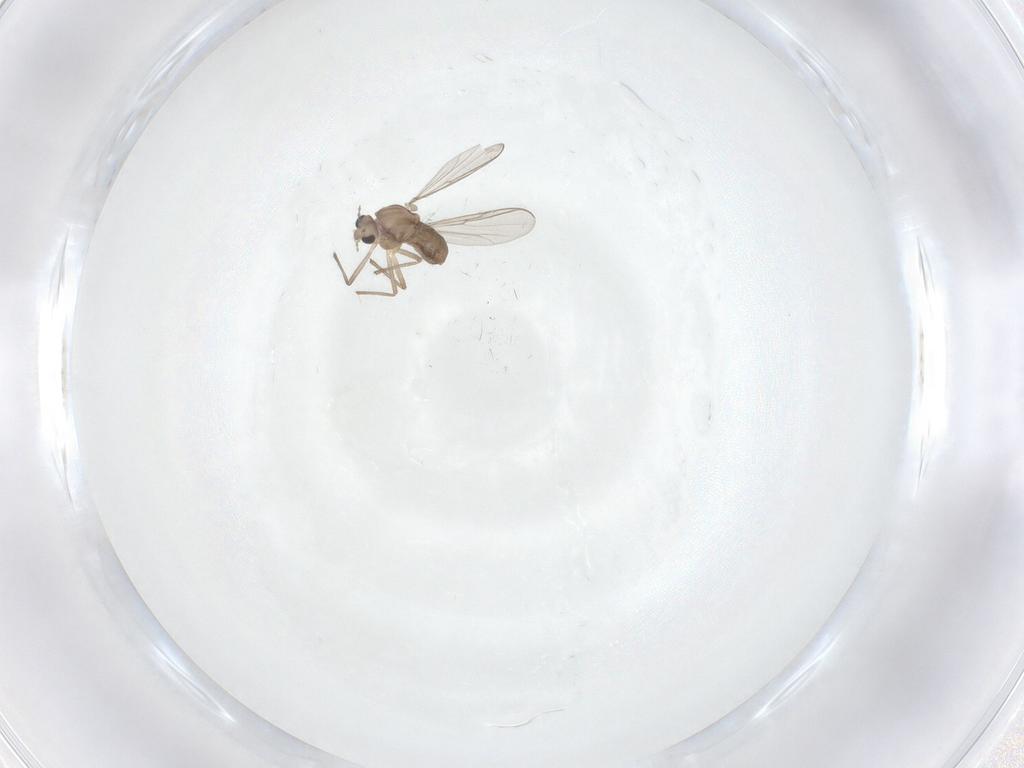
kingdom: Animalia
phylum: Arthropoda
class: Insecta
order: Diptera
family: Chironomidae
